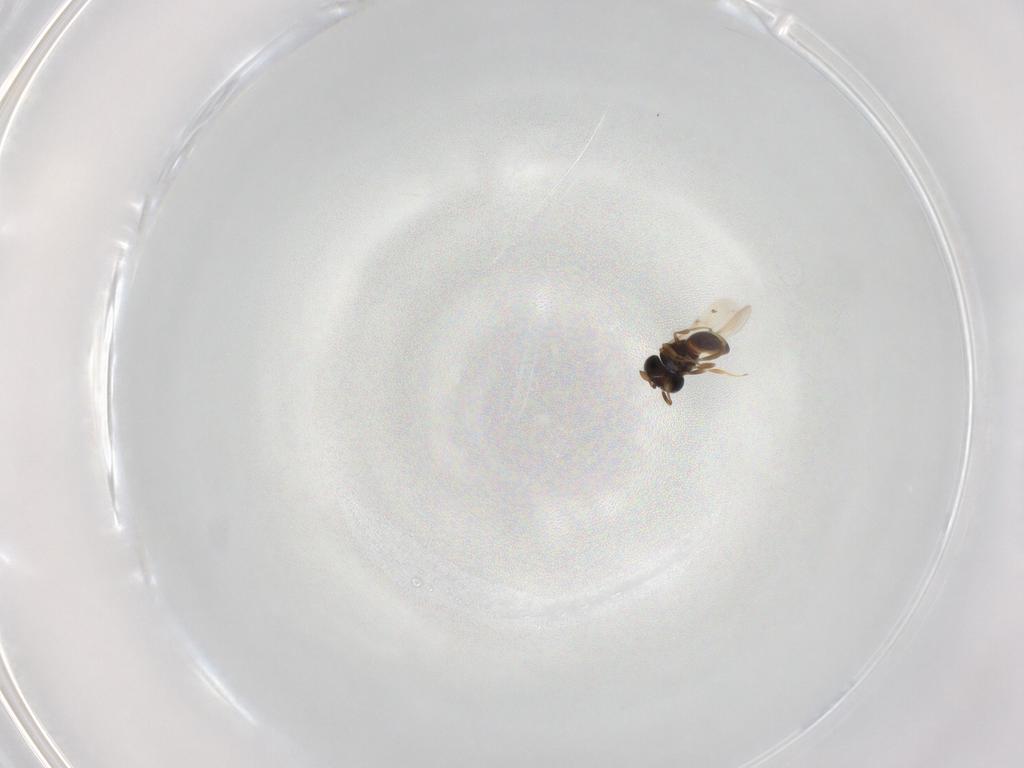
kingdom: Animalia
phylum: Arthropoda
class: Insecta
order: Hymenoptera
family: Scelionidae
